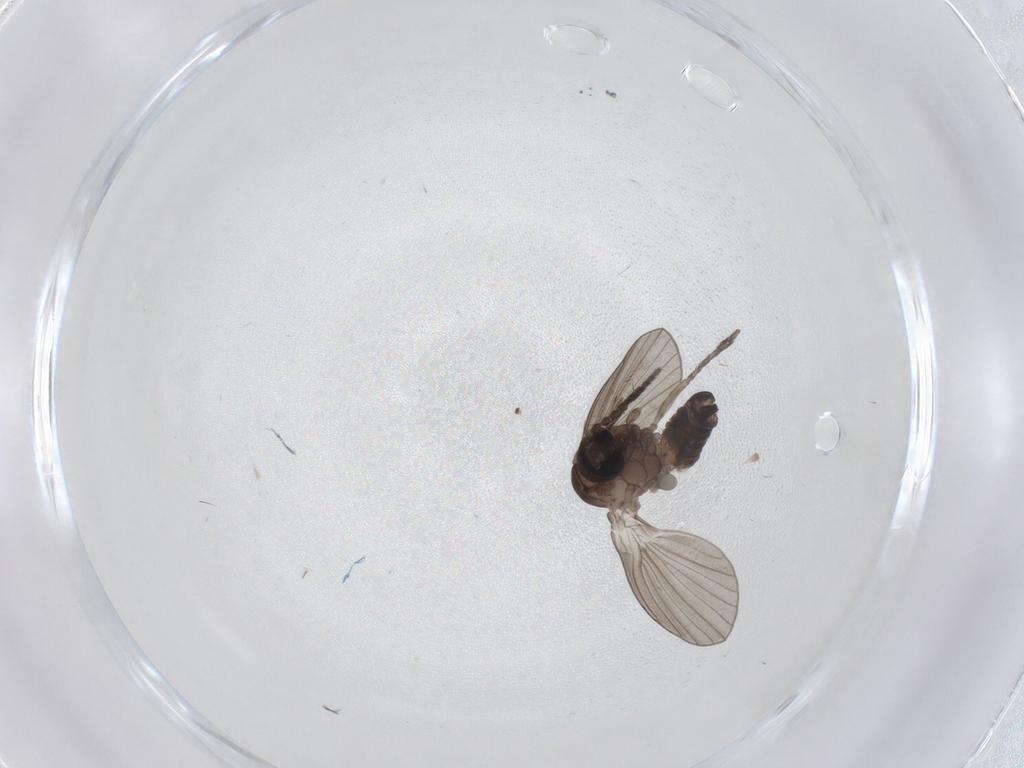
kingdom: Animalia
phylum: Arthropoda
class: Insecta
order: Diptera
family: Psychodidae
